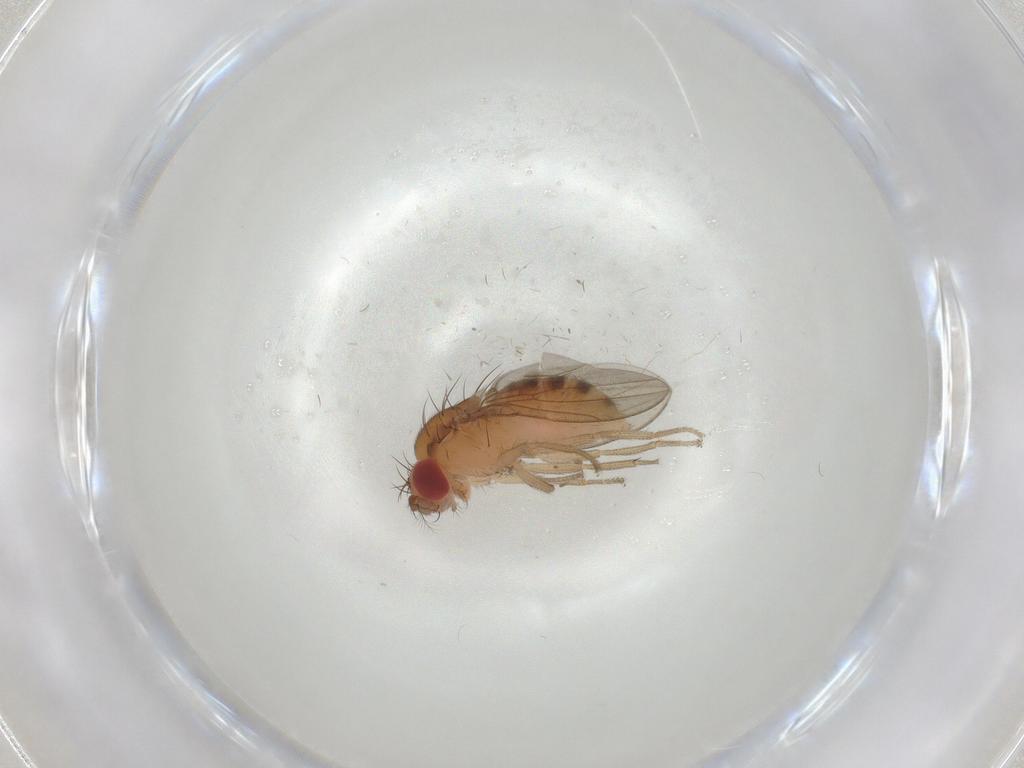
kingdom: Animalia
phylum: Arthropoda
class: Insecta
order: Diptera
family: Drosophilidae
